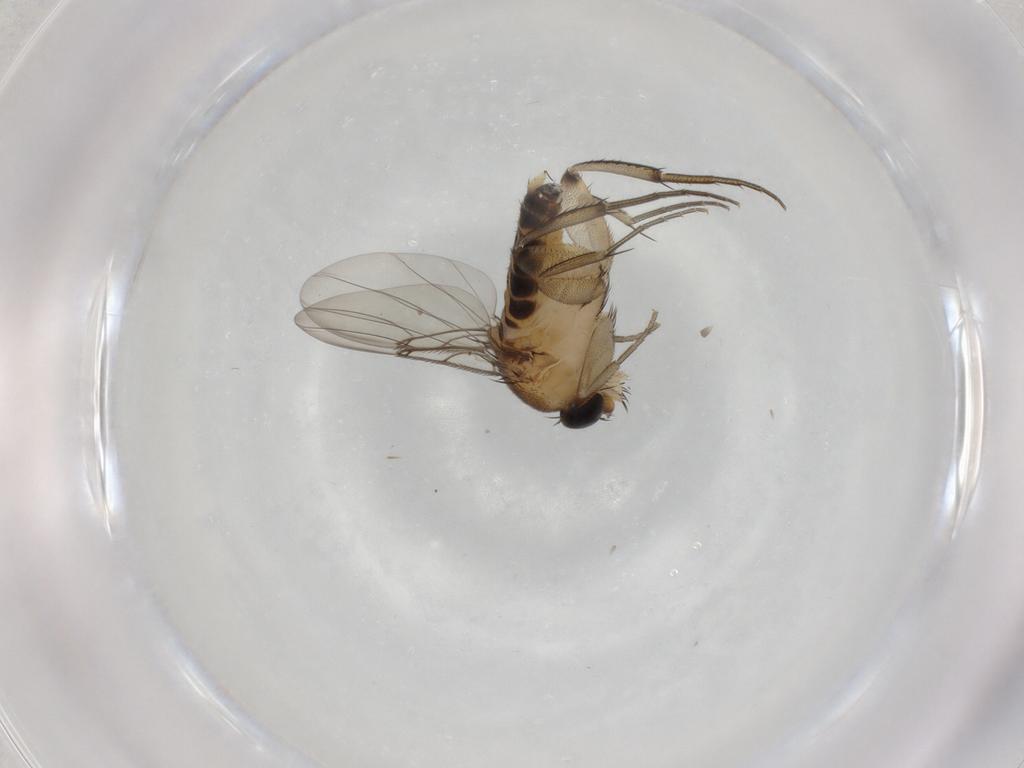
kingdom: Animalia
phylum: Arthropoda
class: Insecta
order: Diptera
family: Phoridae
